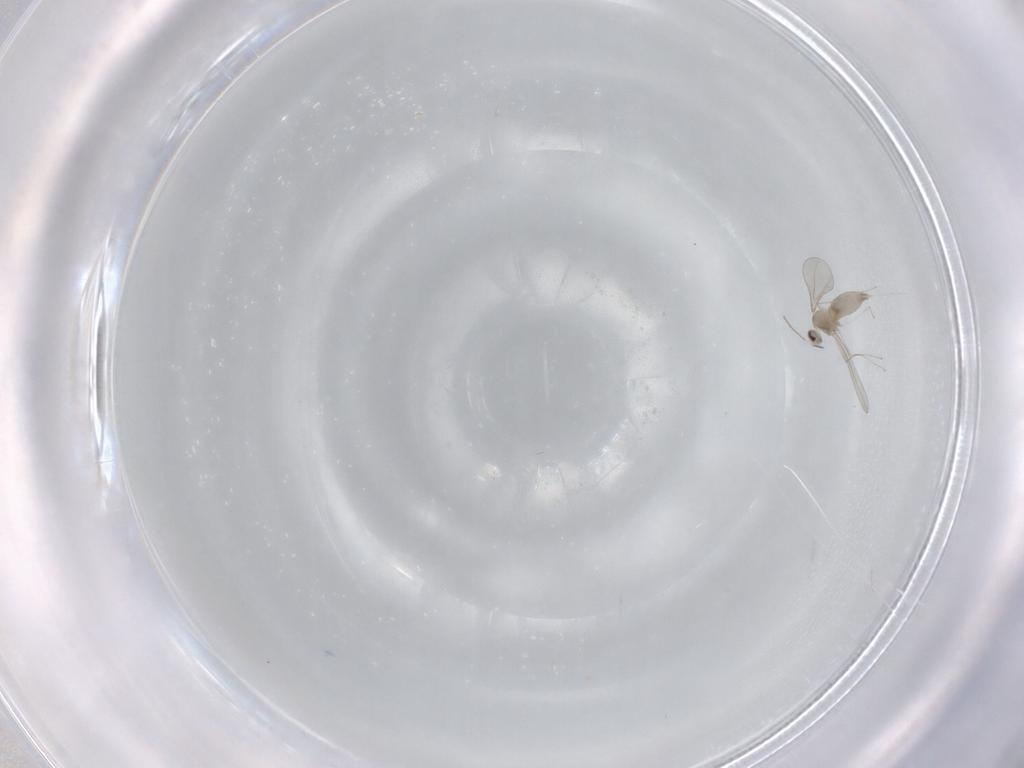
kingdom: Animalia
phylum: Arthropoda
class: Insecta
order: Diptera
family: Cecidomyiidae
